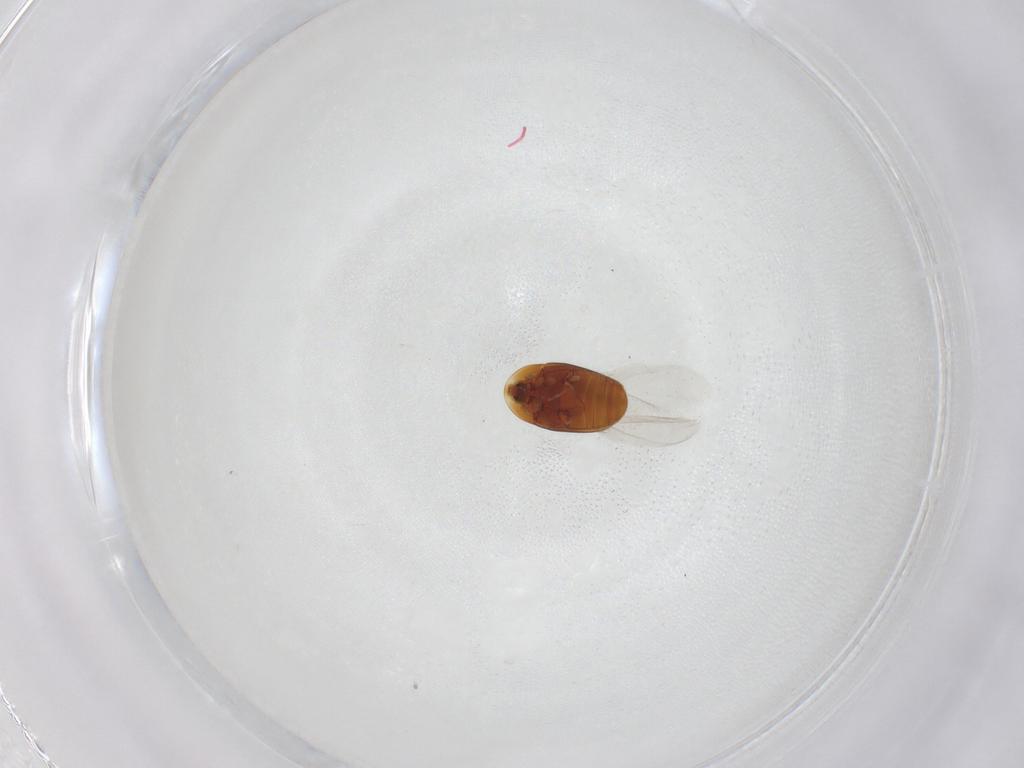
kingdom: Animalia
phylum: Arthropoda
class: Insecta
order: Coleoptera
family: Corylophidae
